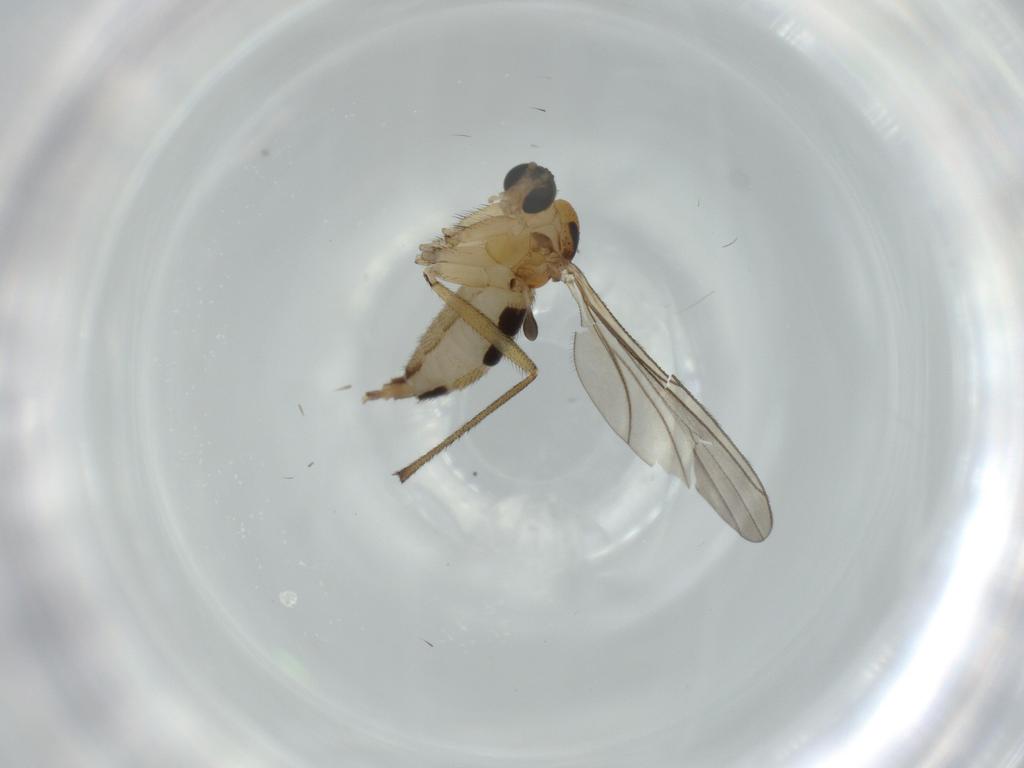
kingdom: Animalia
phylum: Arthropoda
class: Insecta
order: Diptera
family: Sciaridae
